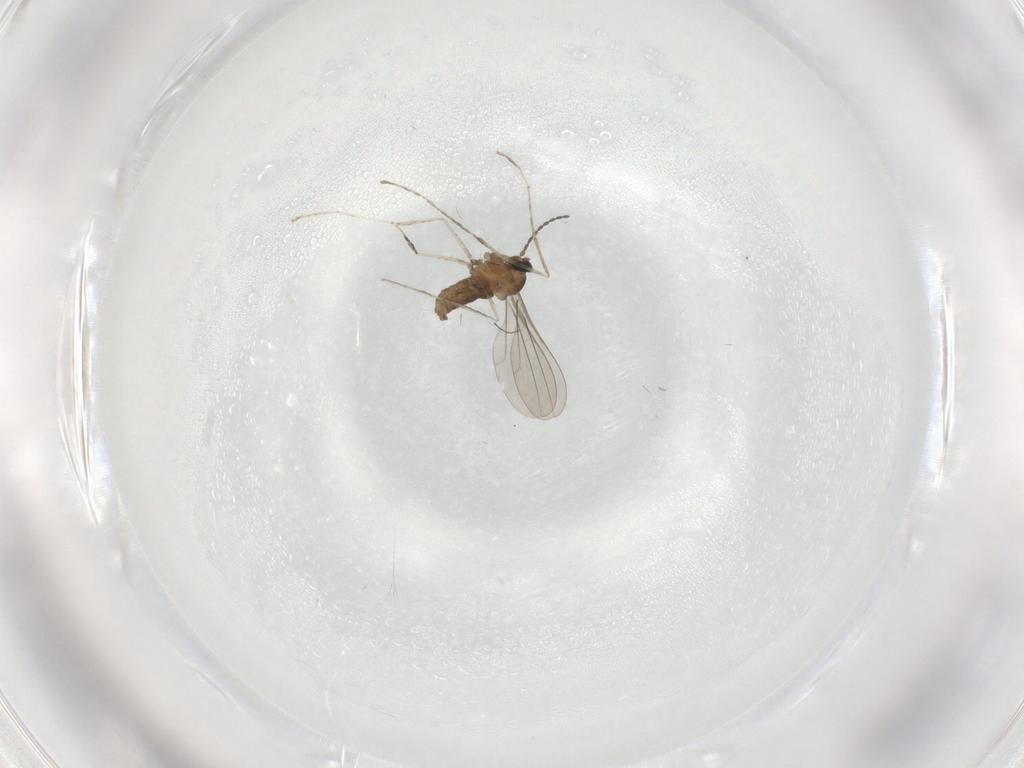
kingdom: Animalia
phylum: Arthropoda
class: Insecta
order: Diptera
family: Cecidomyiidae
